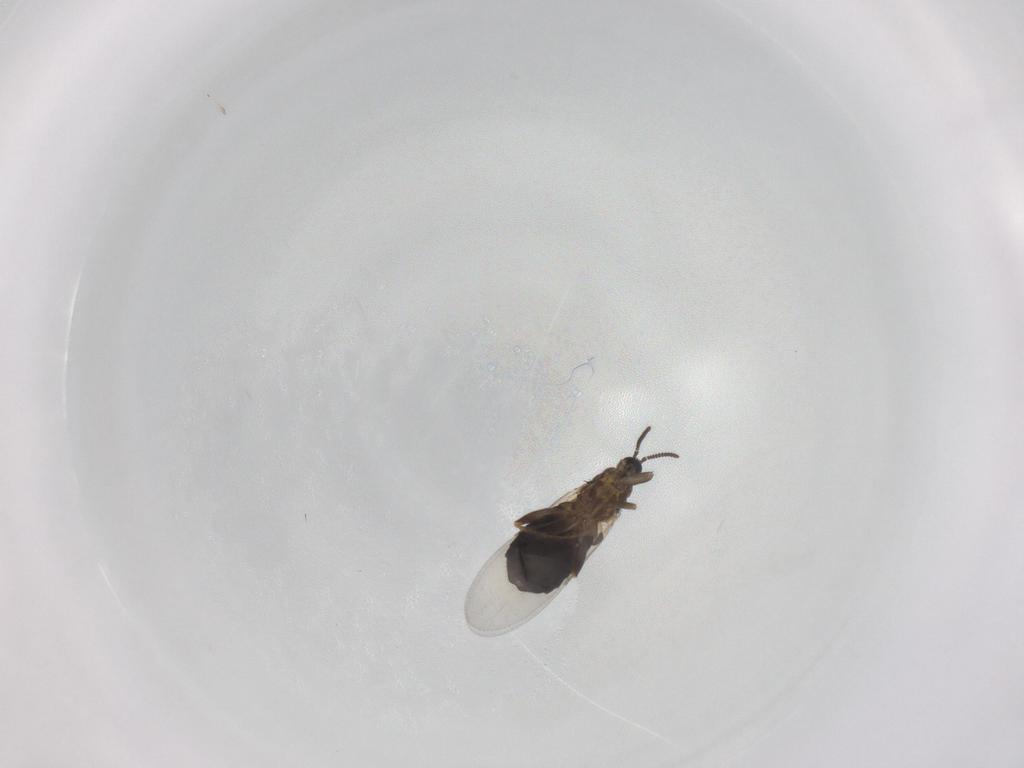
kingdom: Animalia
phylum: Arthropoda
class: Insecta
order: Diptera
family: Scatopsidae
